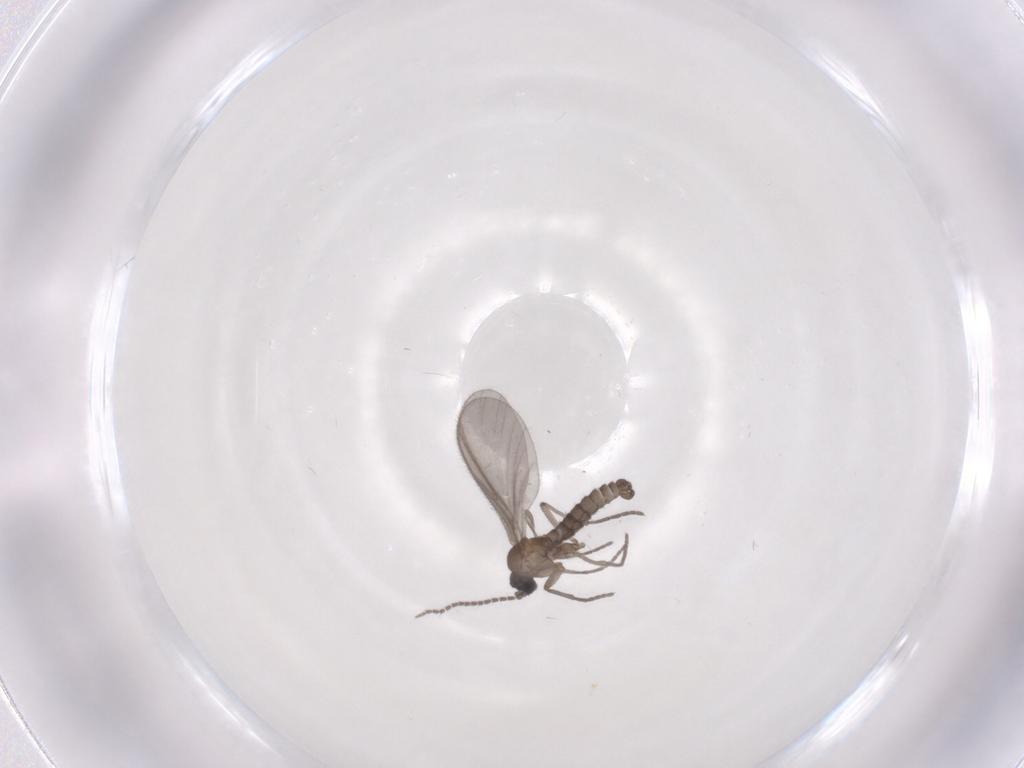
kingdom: Animalia
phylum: Arthropoda
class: Insecta
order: Diptera
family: Sciaridae
